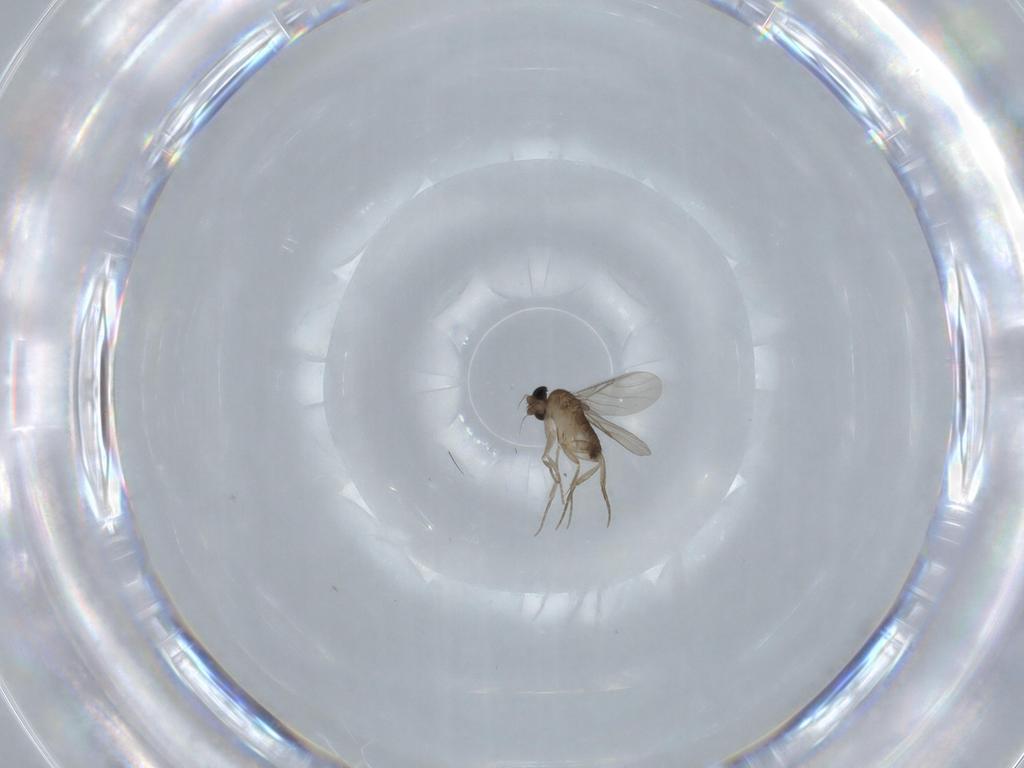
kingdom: Animalia
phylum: Arthropoda
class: Insecta
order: Diptera
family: Phoridae
